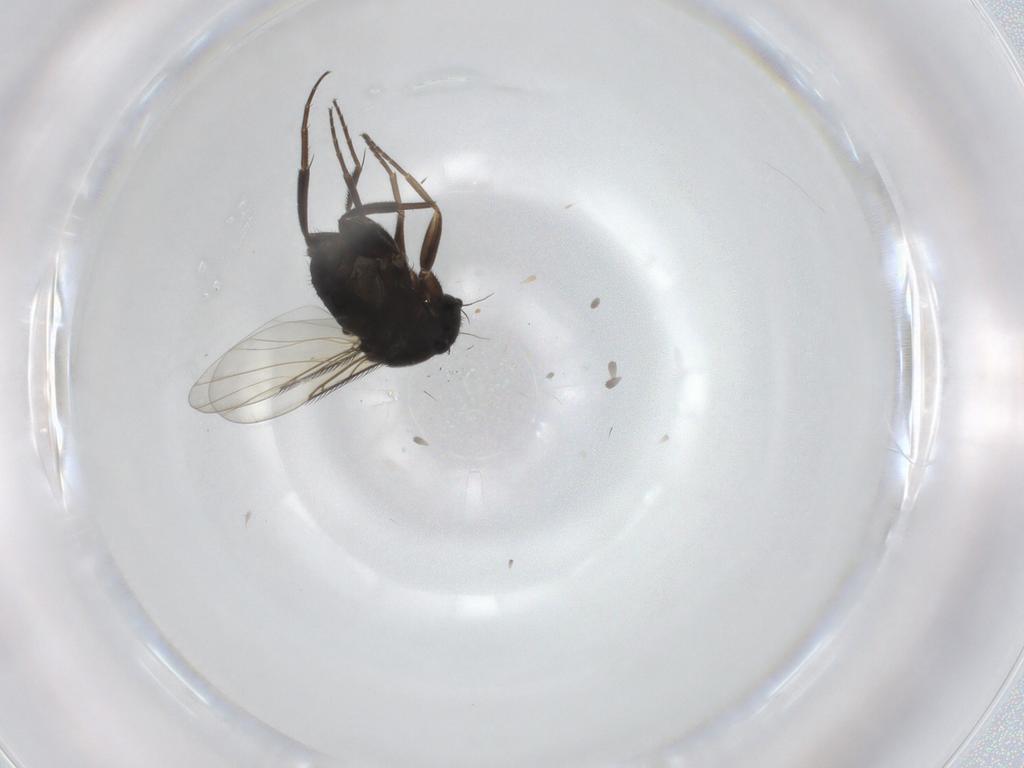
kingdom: Animalia
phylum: Arthropoda
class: Insecta
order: Diptera
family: Phoridae
